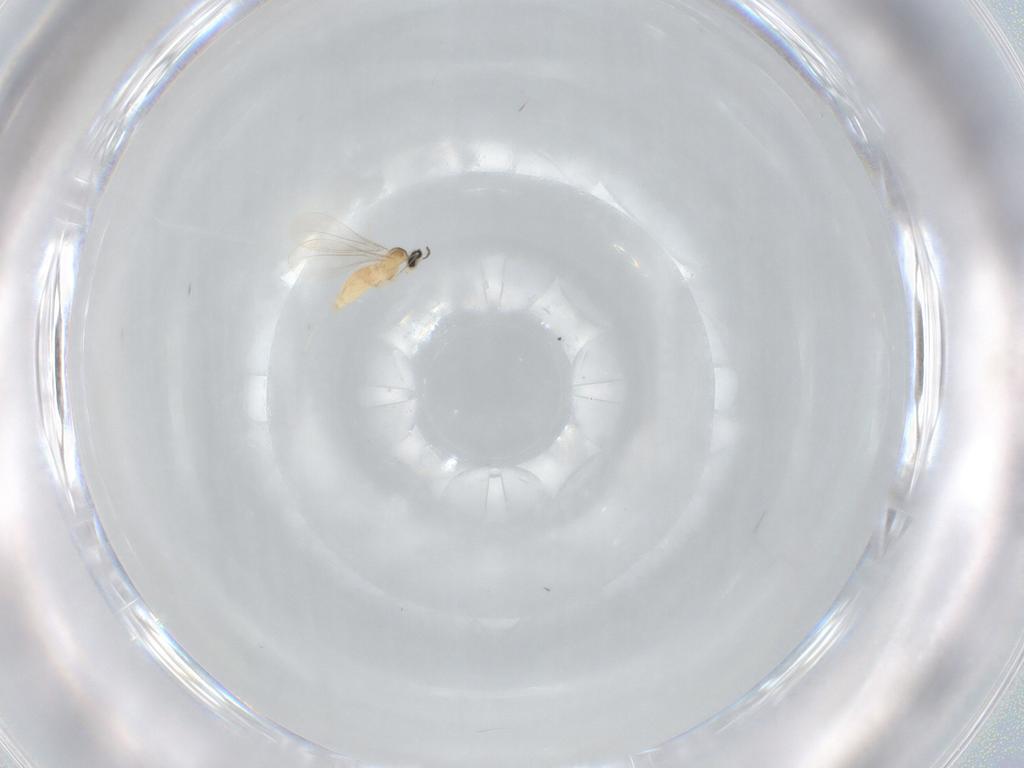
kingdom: Animalia
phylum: Arthropoda
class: Insecta
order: Diptera
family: Cecidomyiidae
